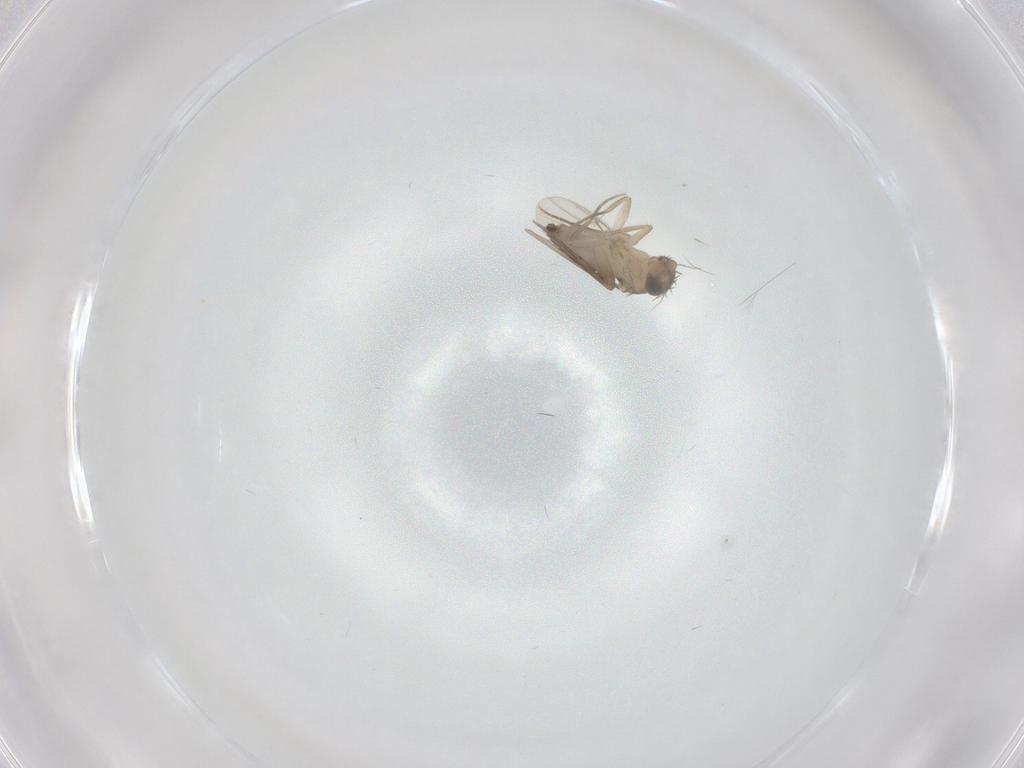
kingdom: Animalia
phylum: Arthropoda
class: Insecta
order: Diptera
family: Phoridae
